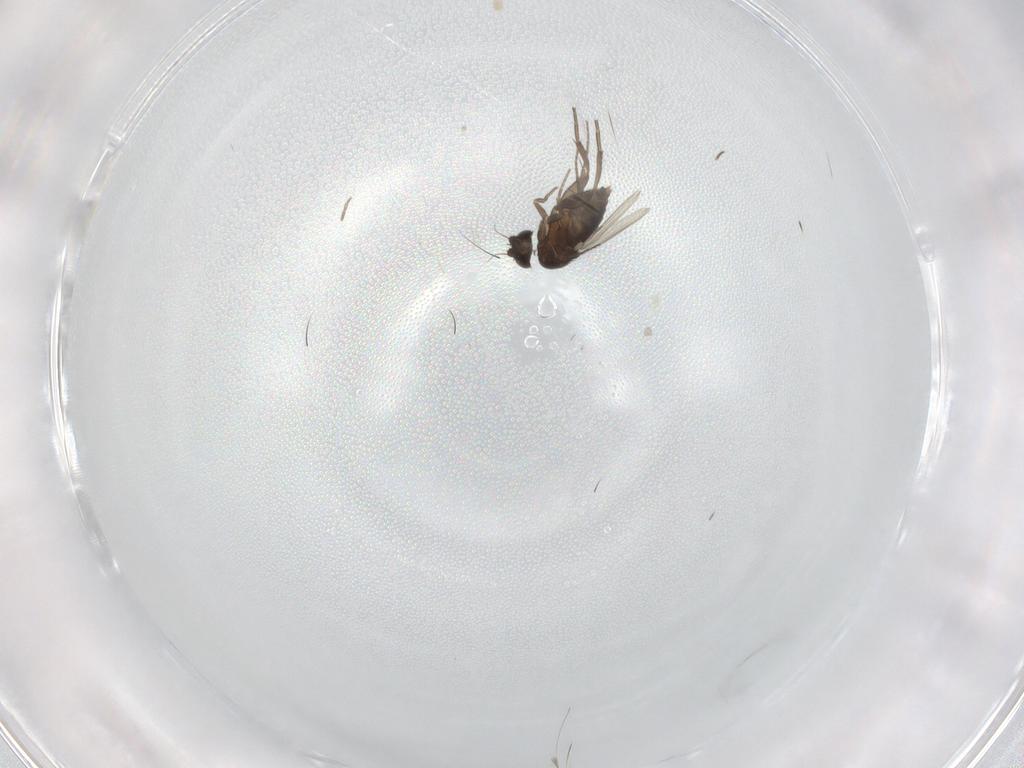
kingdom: Animalia
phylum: Arthropoda
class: Insecta
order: Diptera
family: Phoridae
